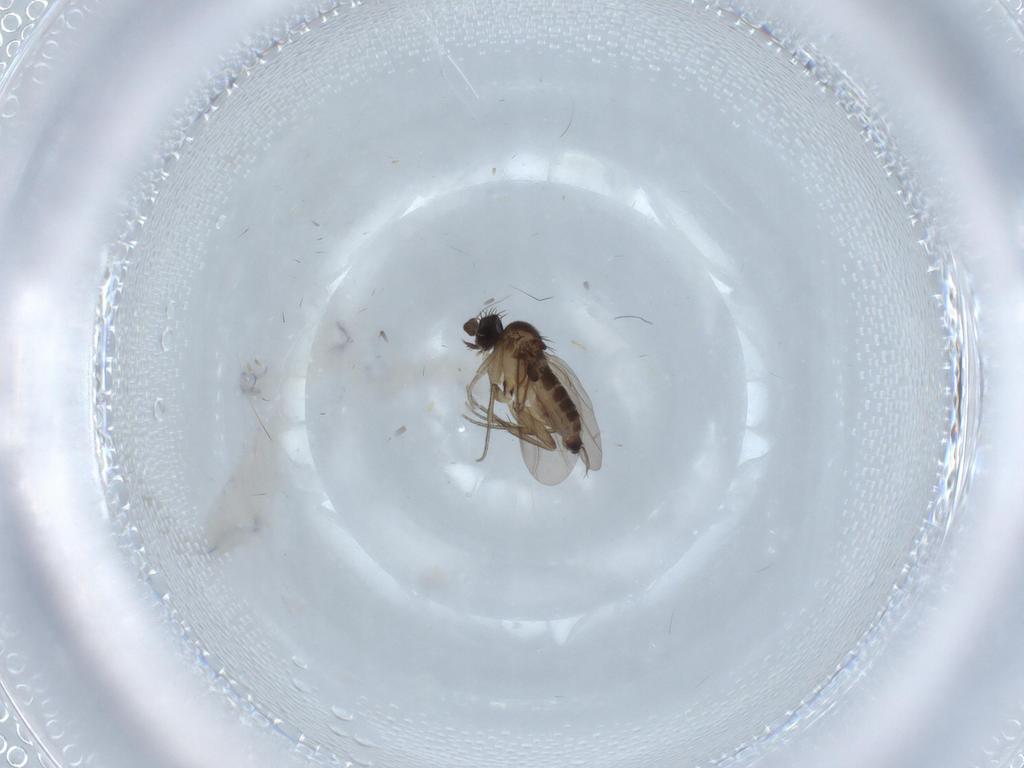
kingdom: Animalia
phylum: Arthropoda
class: Insecta
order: Diptera
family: Phoridae
